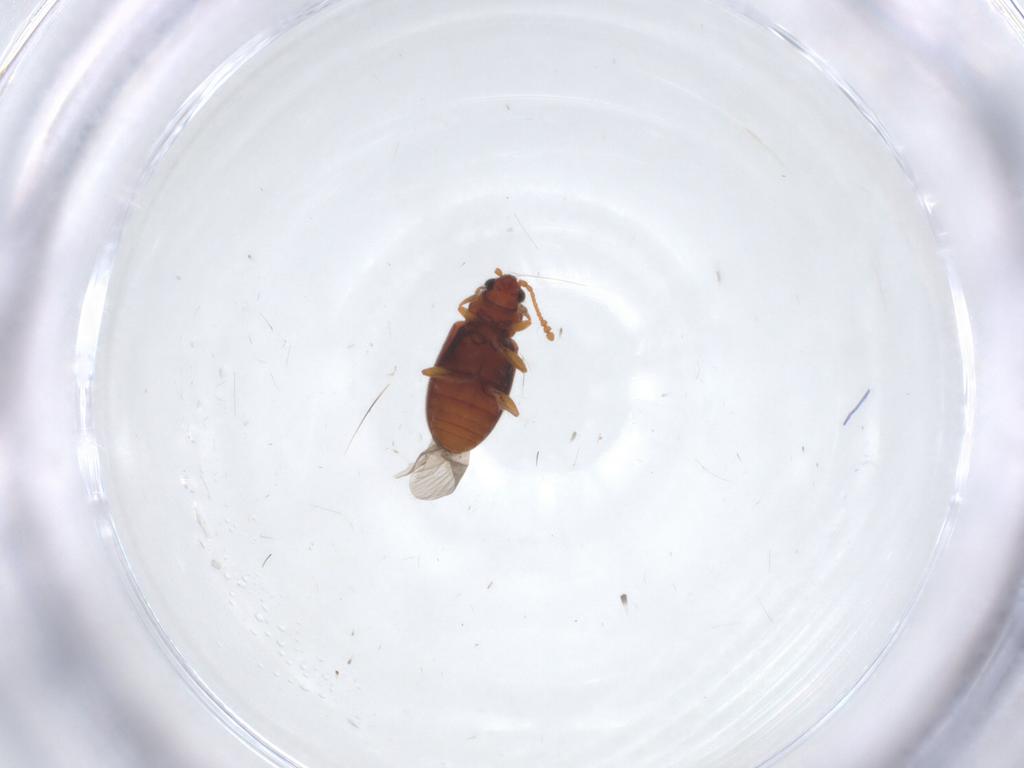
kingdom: Animalia
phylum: Arthropoda
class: Insecta
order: Coleoptera
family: Cryptophagidae
